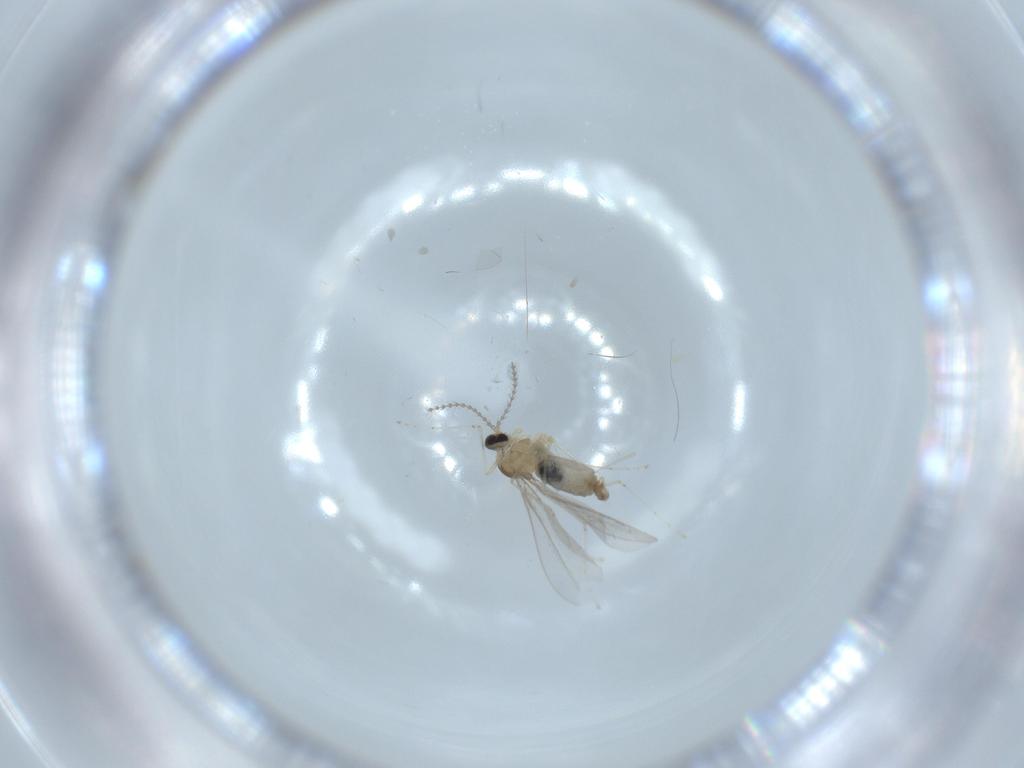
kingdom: Animalia
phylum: Arthropoda
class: Insecta
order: Diptera
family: Cecidomyiidae
